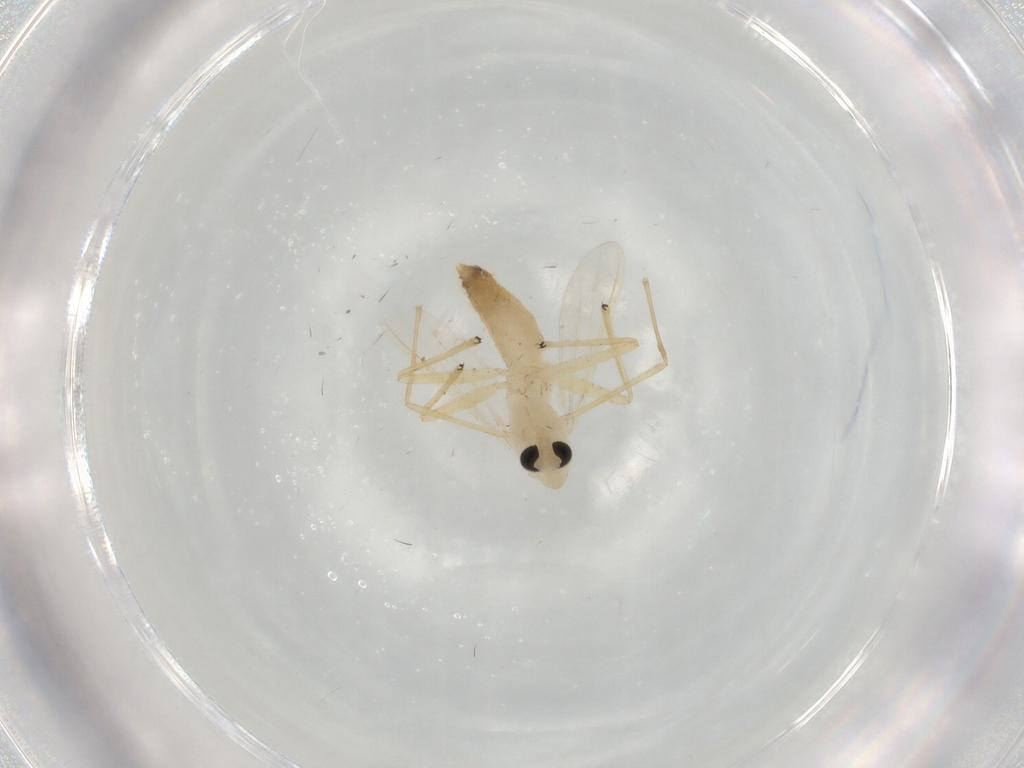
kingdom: Animalia
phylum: Arthropoda
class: Insecta
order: Diptera
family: Chironomidae
